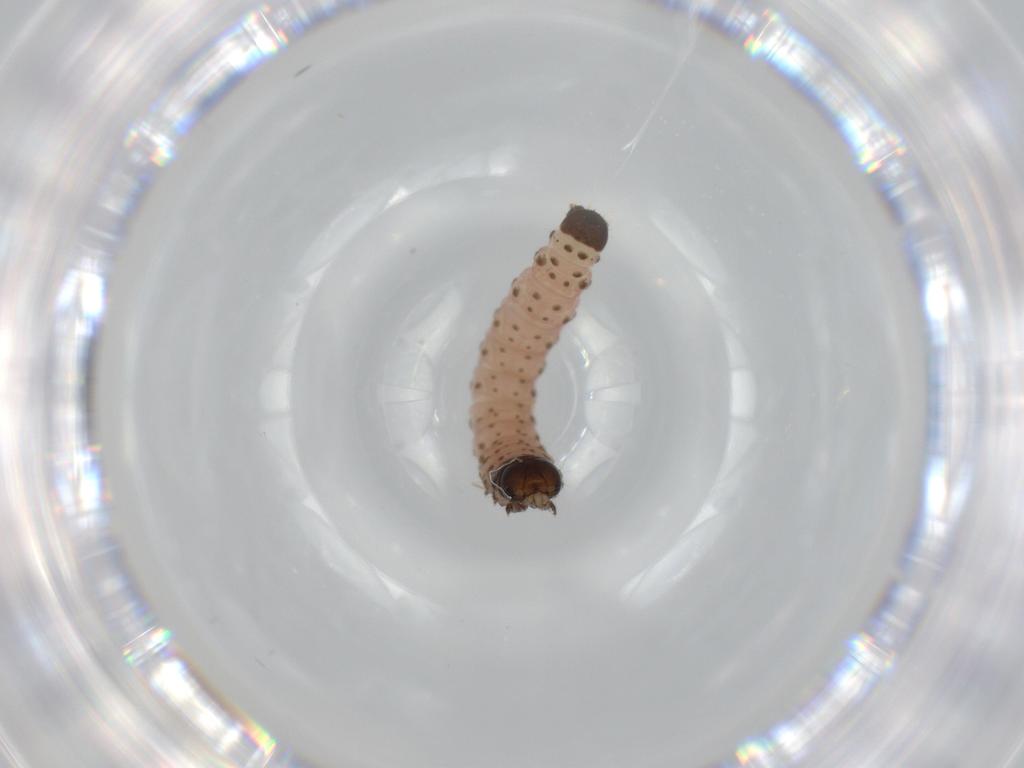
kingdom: Animalia
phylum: Arthropoda
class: Insecta
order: Lepidoptera
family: Autostichidae
